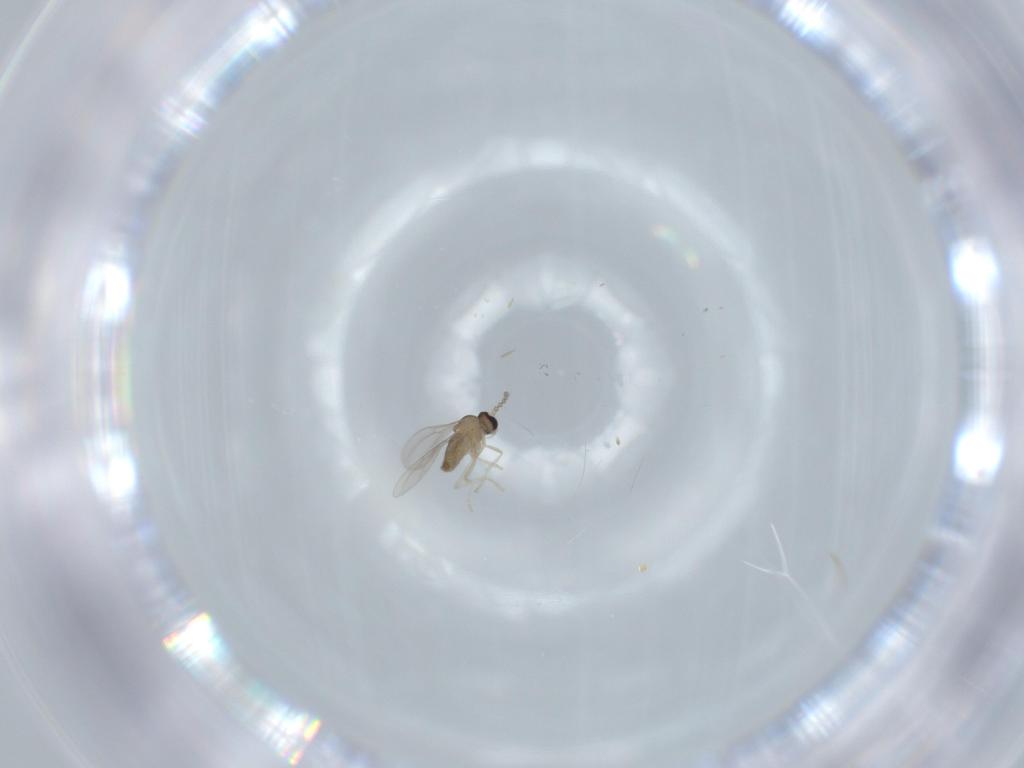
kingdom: Animalia
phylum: Arthropoda
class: Insecta
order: Diptera
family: Cecidomyiidae
